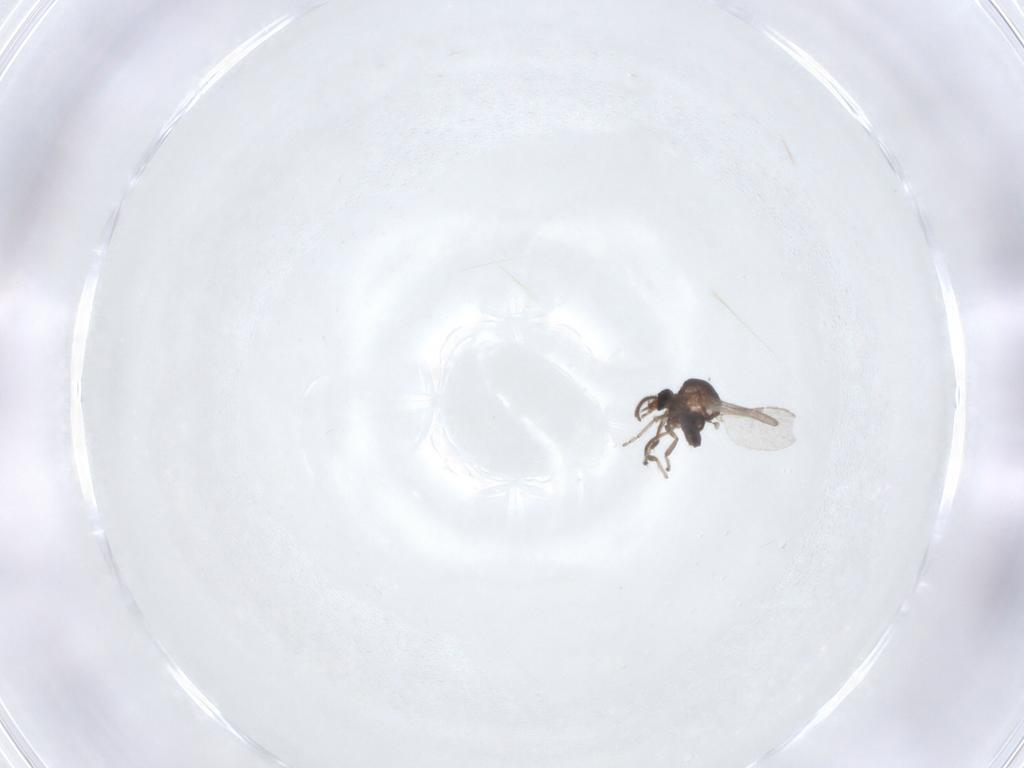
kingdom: Animalia
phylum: Arthropoda
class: Insecta
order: Diptera
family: Ceratopogonidae
